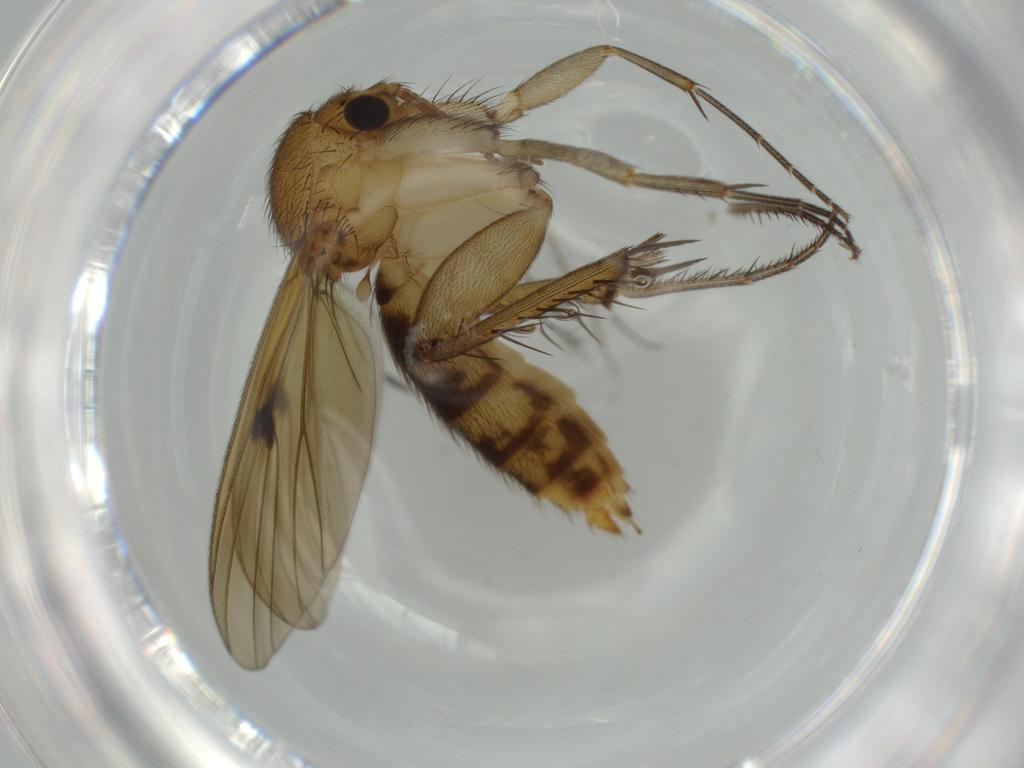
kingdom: Animalia
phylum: Arthropoda
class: Insecta
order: Diptera
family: Mycetophilidae
